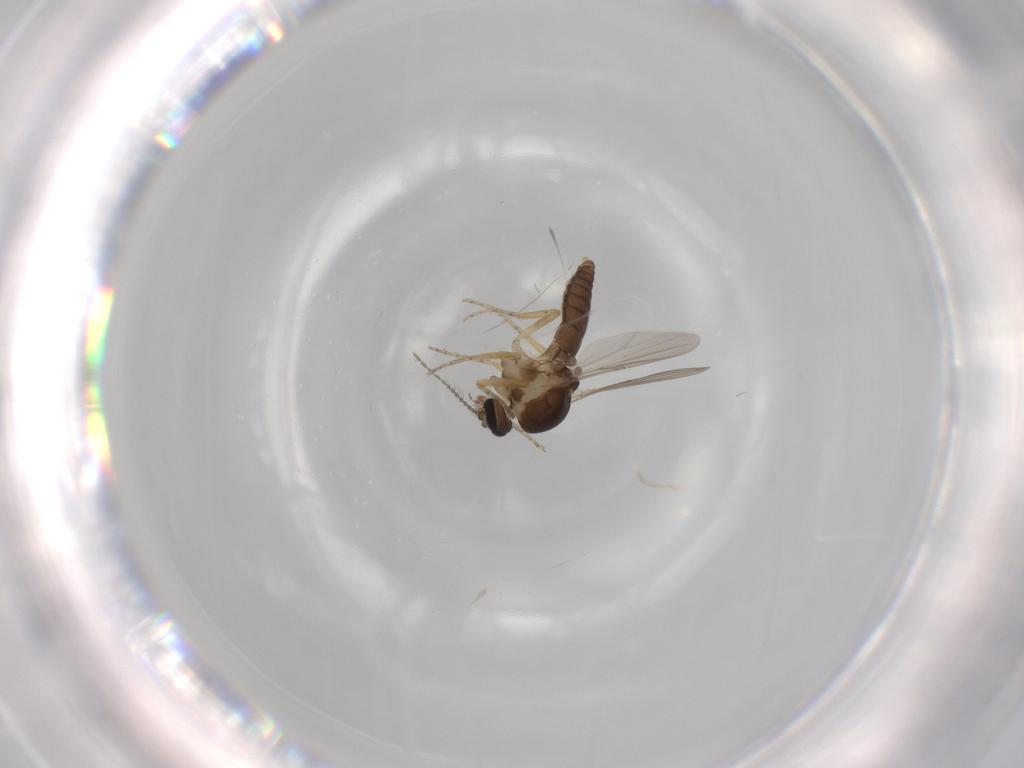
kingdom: Animalia
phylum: Arthropoda
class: Insecta
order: Diptera
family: Ceratopogonidae
